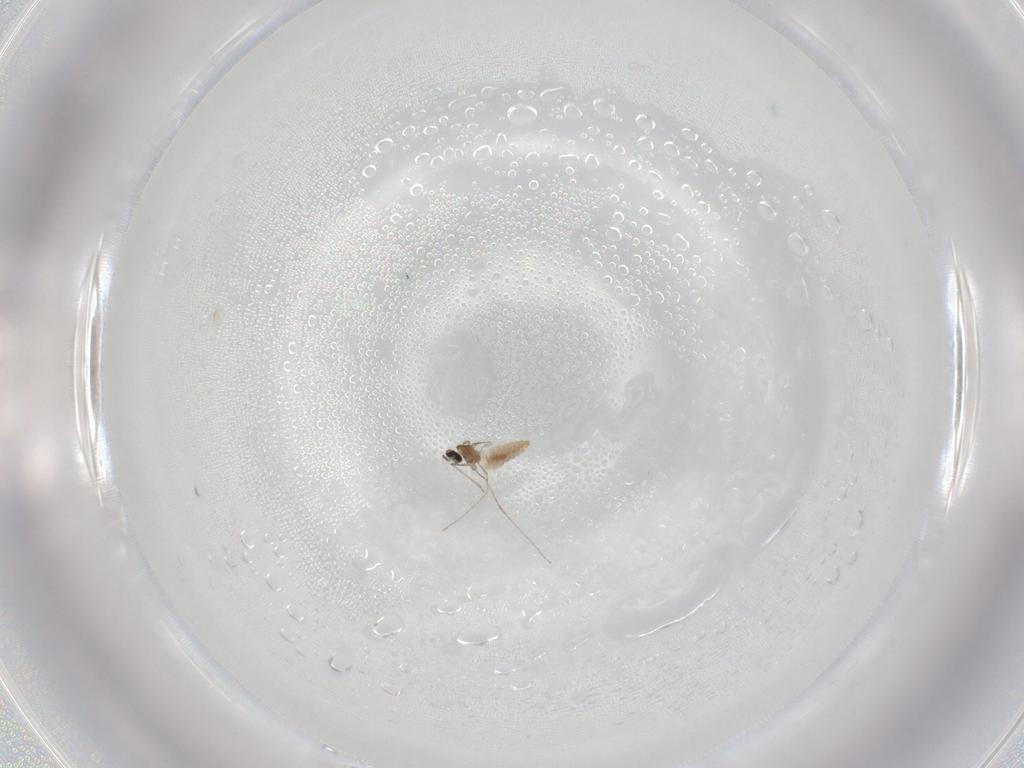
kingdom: Animalia
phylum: Arthropoda
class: Insecta
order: Diptera
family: Cecidomyiidae
